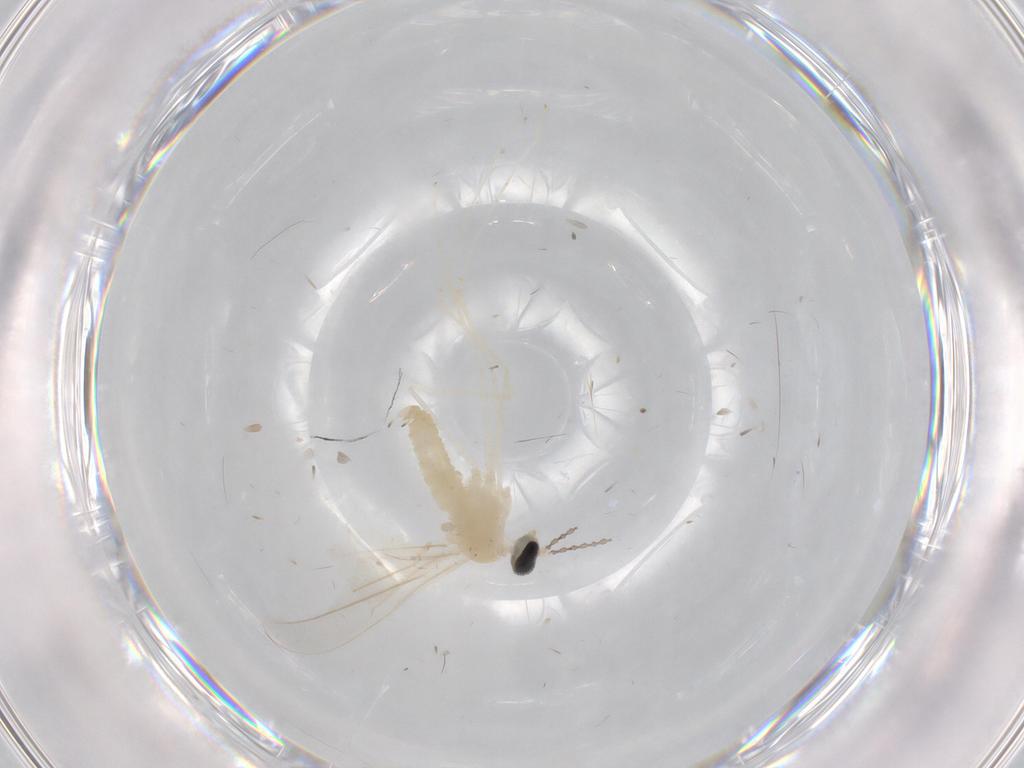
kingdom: Animalia
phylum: Arthropoda
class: Insecta
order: Diptera
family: Cecidomyiidae
